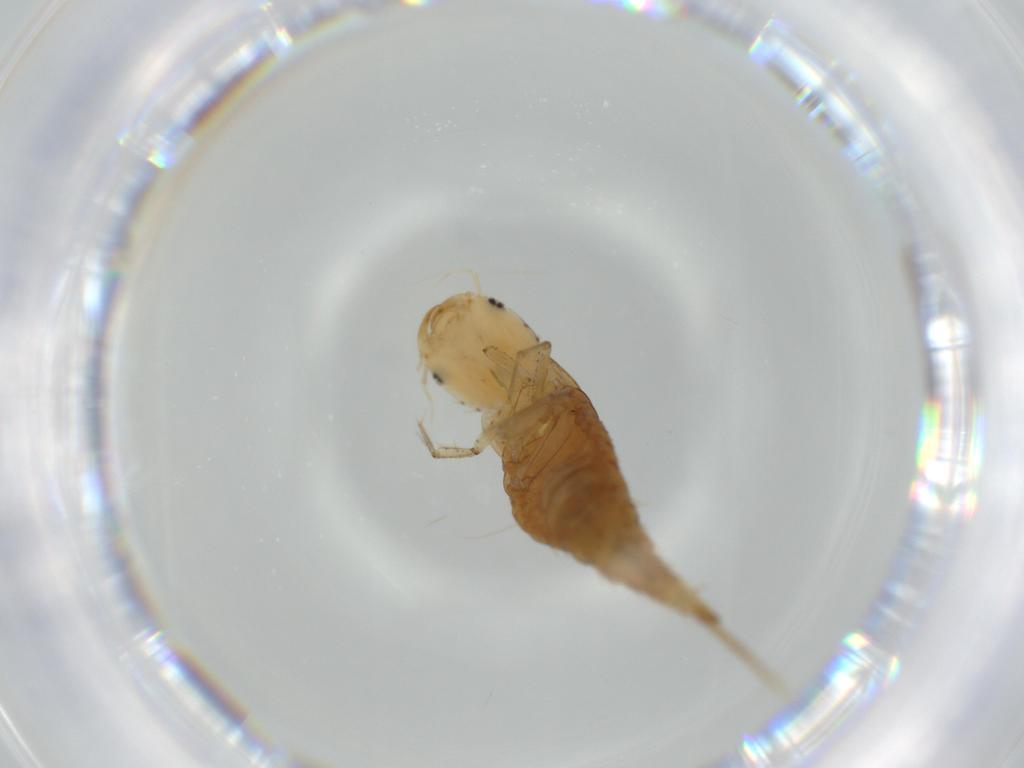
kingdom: Animalia
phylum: Arthropoda
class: Insecta
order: Coleoptera
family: Dytiscidae
